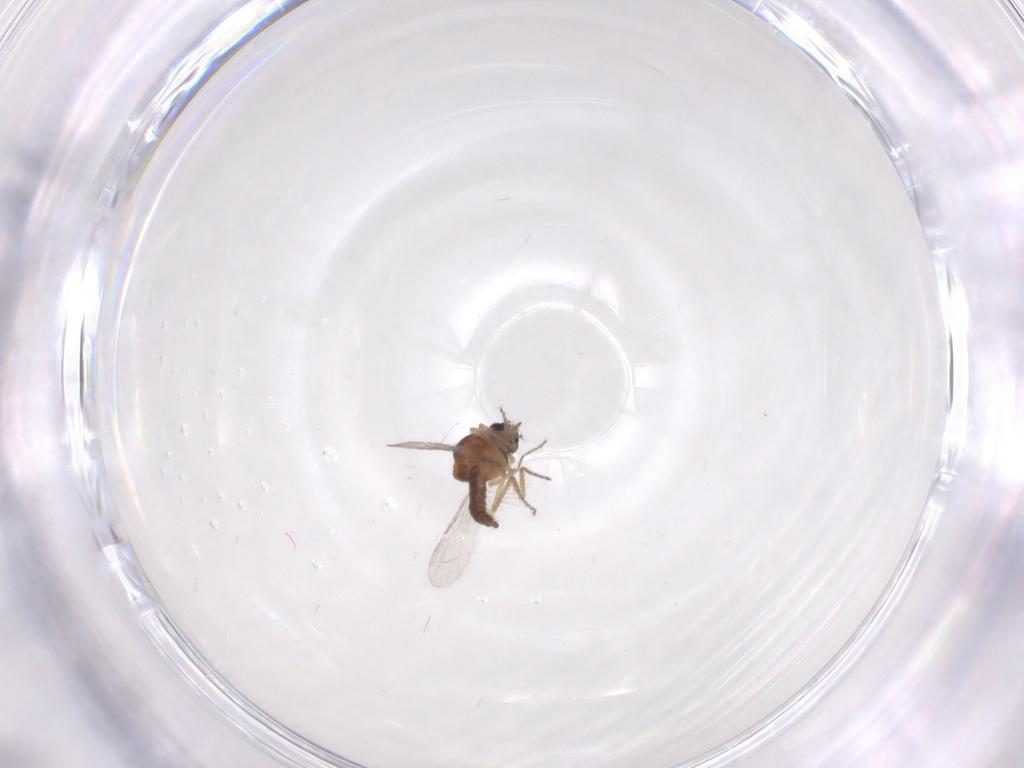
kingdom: Animalia
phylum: Arthropoda
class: Insecta
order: Diptera
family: Ceratopogonidae
